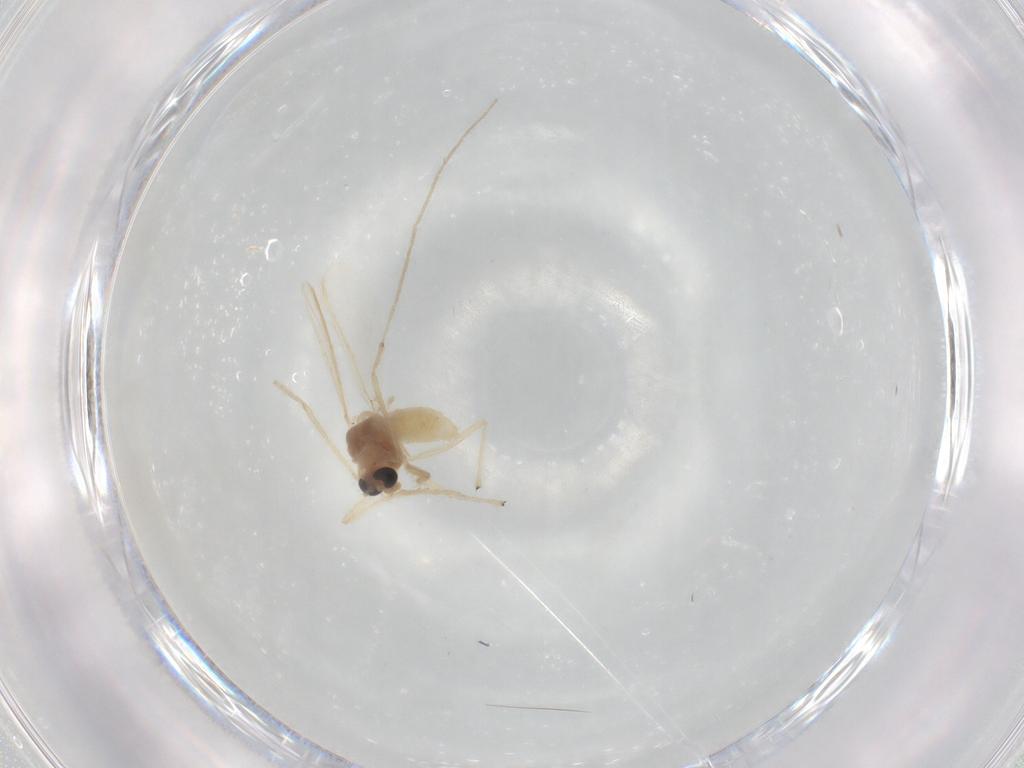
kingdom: Animalia
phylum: Arthropoda
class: Insecta
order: Diptera
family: Chironomidae
